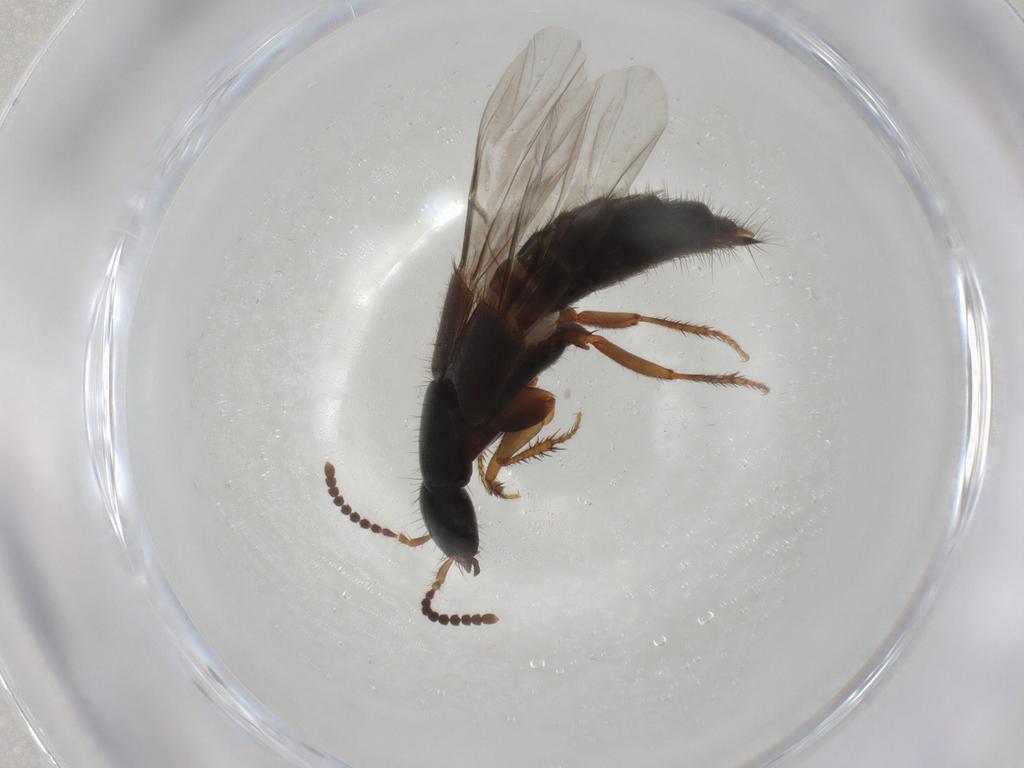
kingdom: Animalia
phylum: Arthropoda
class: Insecta
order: Coleoptera
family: Staphylinidae
